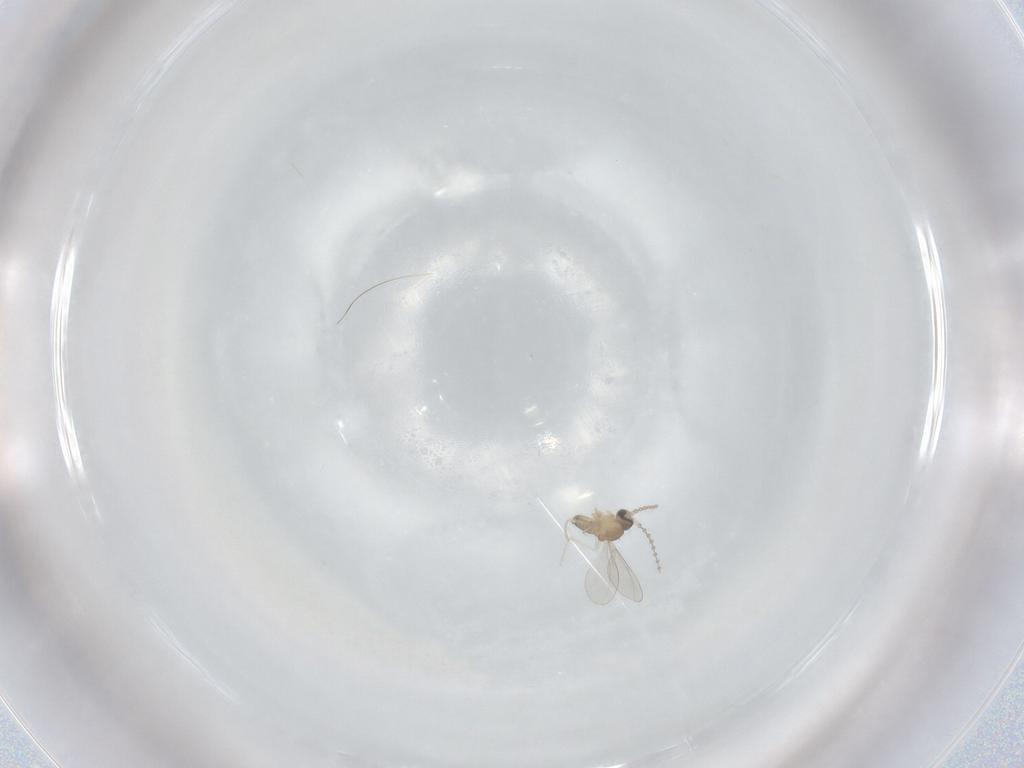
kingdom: Animalia
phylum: Arthropoda
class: Insecta
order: Diptera
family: Cecidomyiidae
